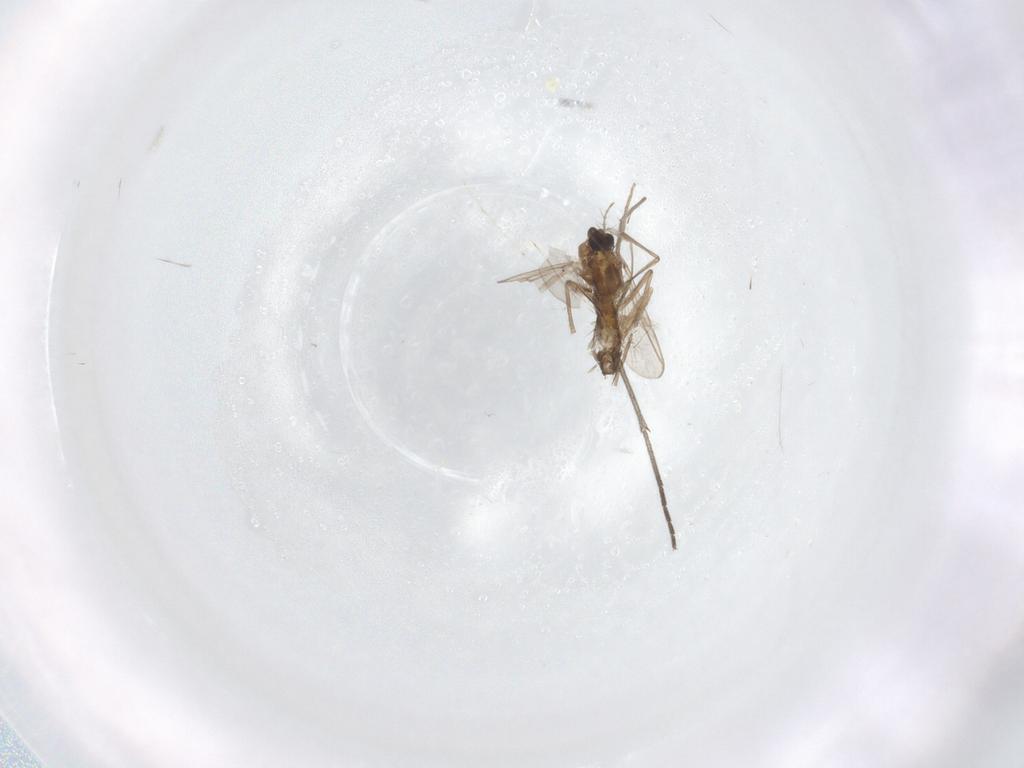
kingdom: Animalia
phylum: Arthropoda
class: Insecta
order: Diptera
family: Chironomidae
